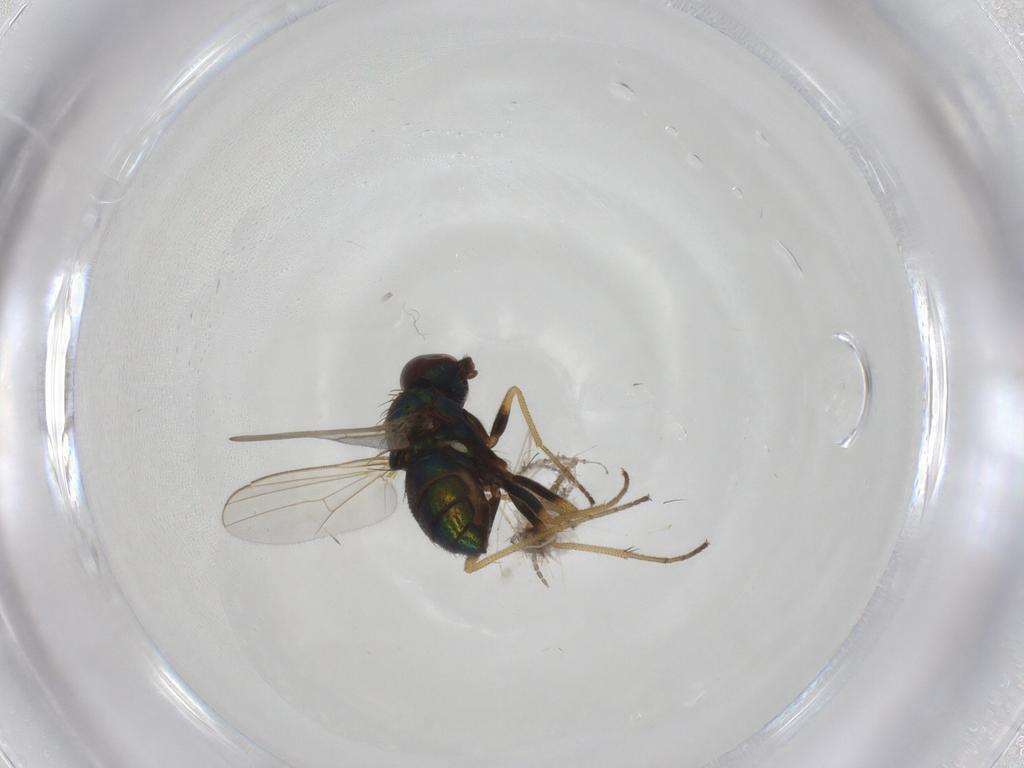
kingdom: Animalia
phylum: Arthropoda
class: Insecta
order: Diptera
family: Dolichopodidae
